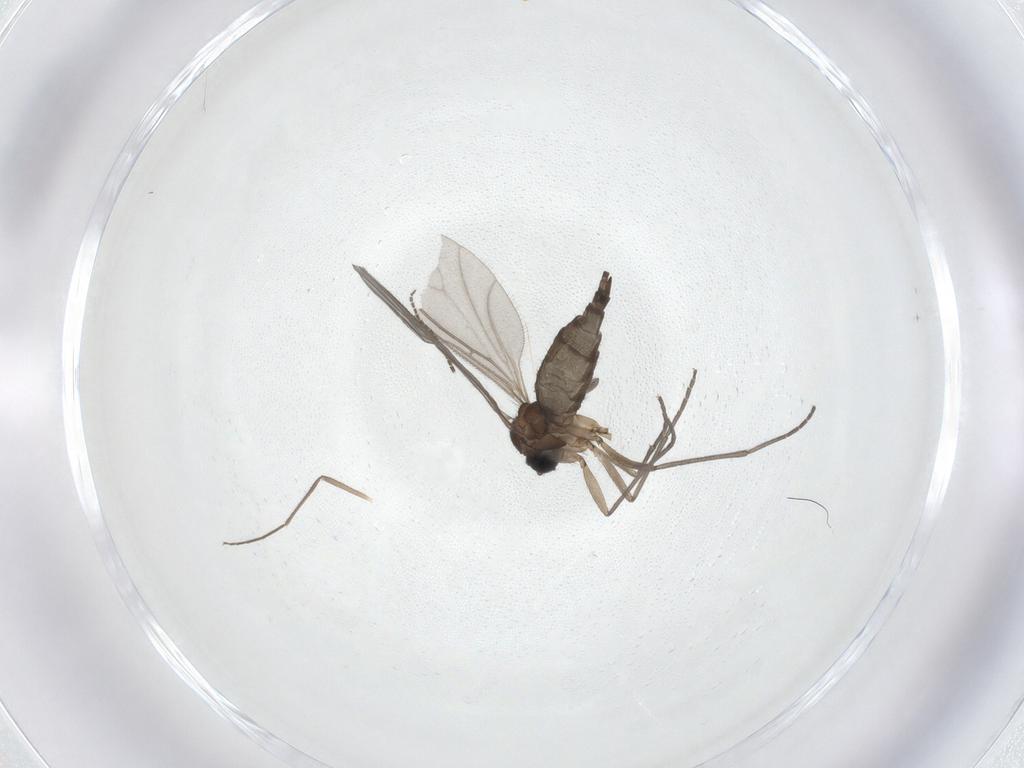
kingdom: Animalia
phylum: Arthropoda
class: Insecta
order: Diptera
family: Chironomidae
